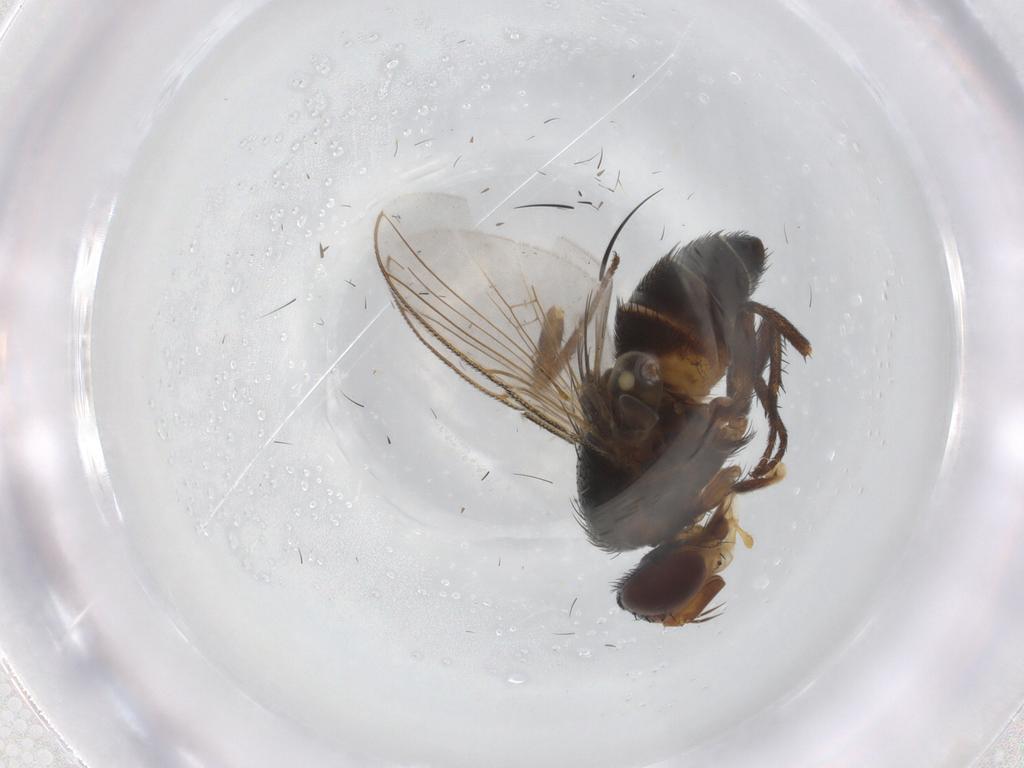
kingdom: Animalia
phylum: Arthropoda
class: Insecta
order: Diptera
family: Tachinidae
